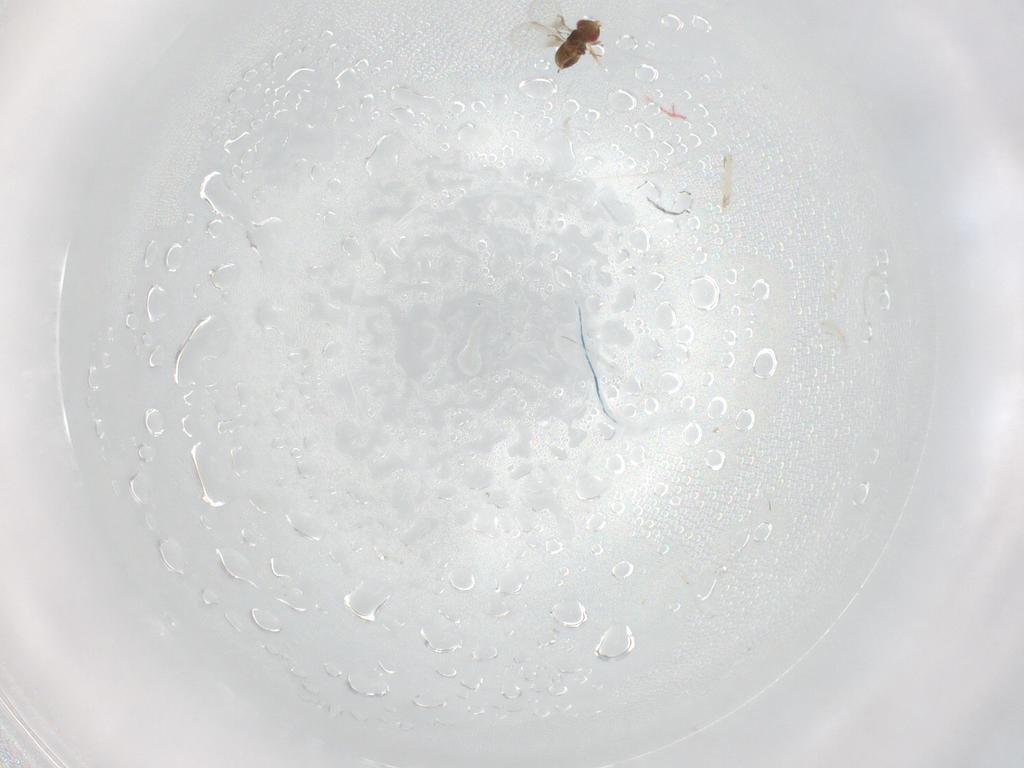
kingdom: Animalia
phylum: Arthropoda
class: Insecta
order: Hymenoptera
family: Trichogrammatidae
